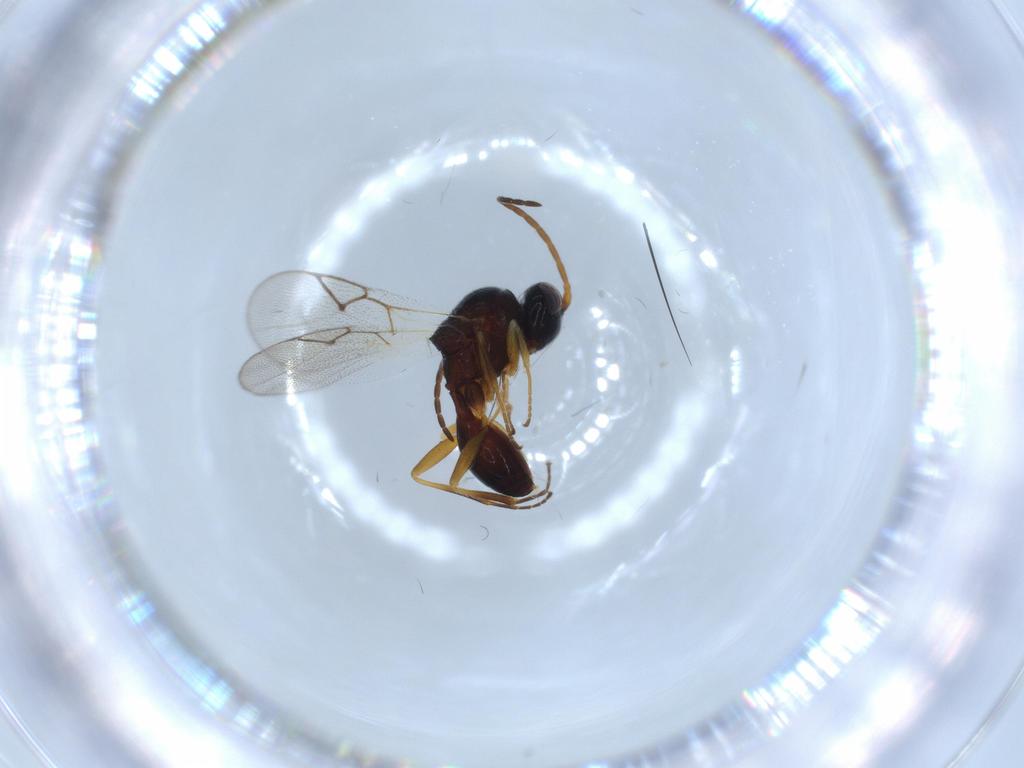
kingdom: Animalia
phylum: Arthropoda
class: Insecta
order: Hymenoptera
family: Figitidae
